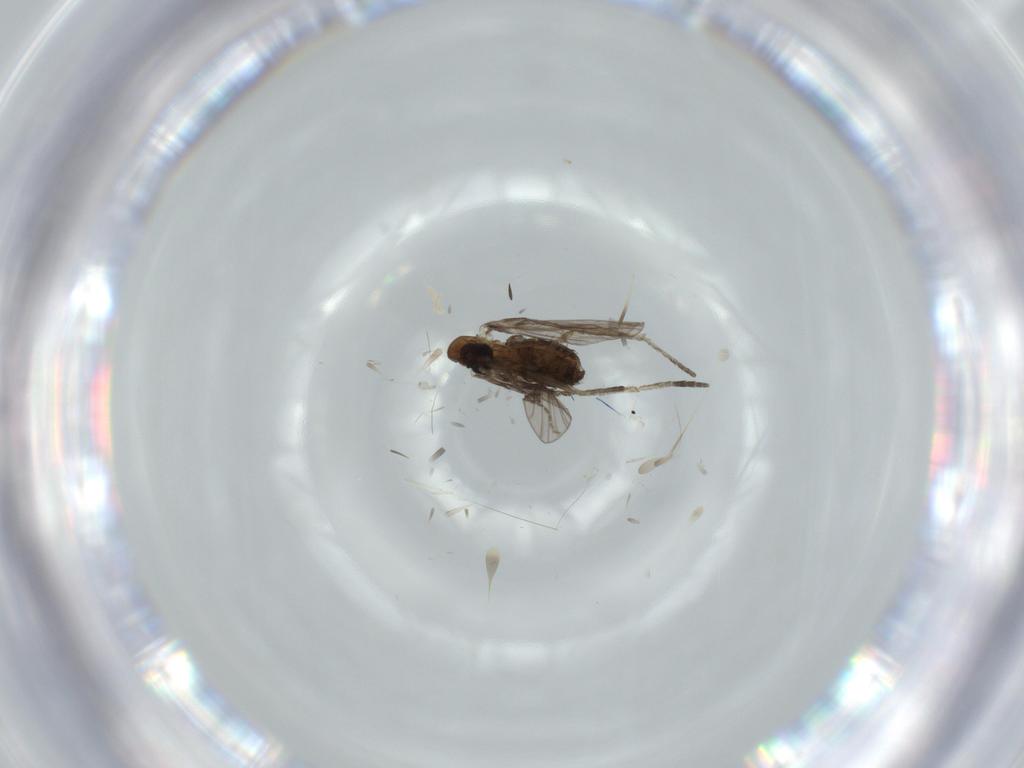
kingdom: Animalia
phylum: Arthropoda
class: Insecta
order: Diptera
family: Psychodidae
